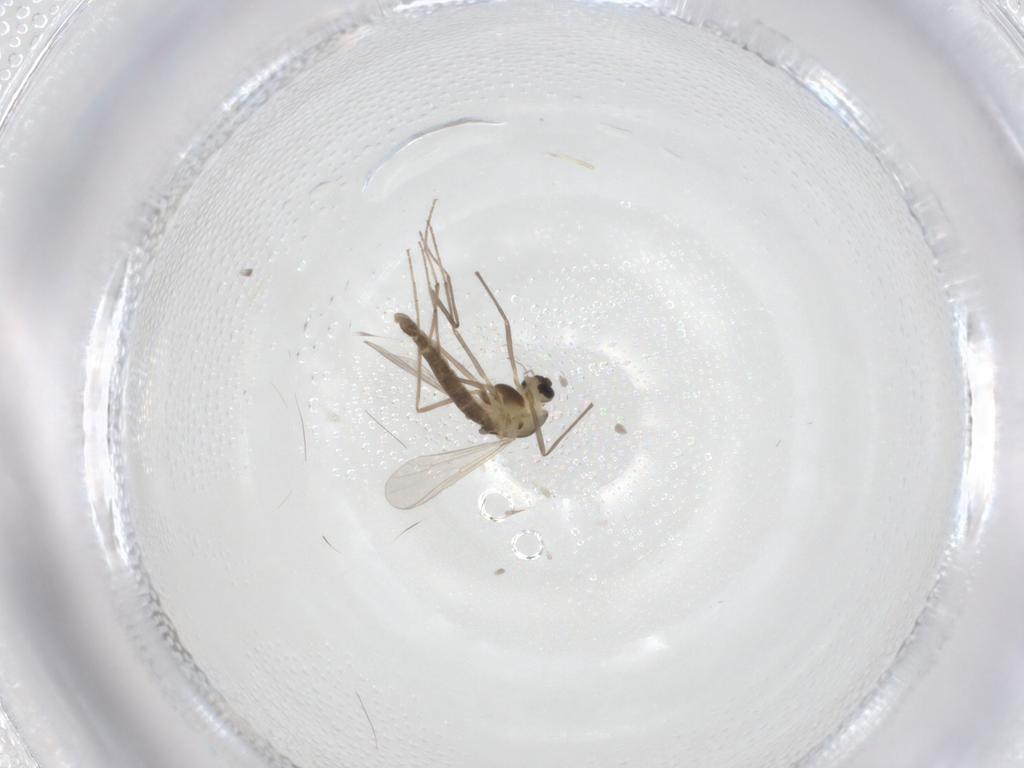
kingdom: Animalia
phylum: Arthropoda
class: Insecta
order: Diptera
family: Chironomidae
